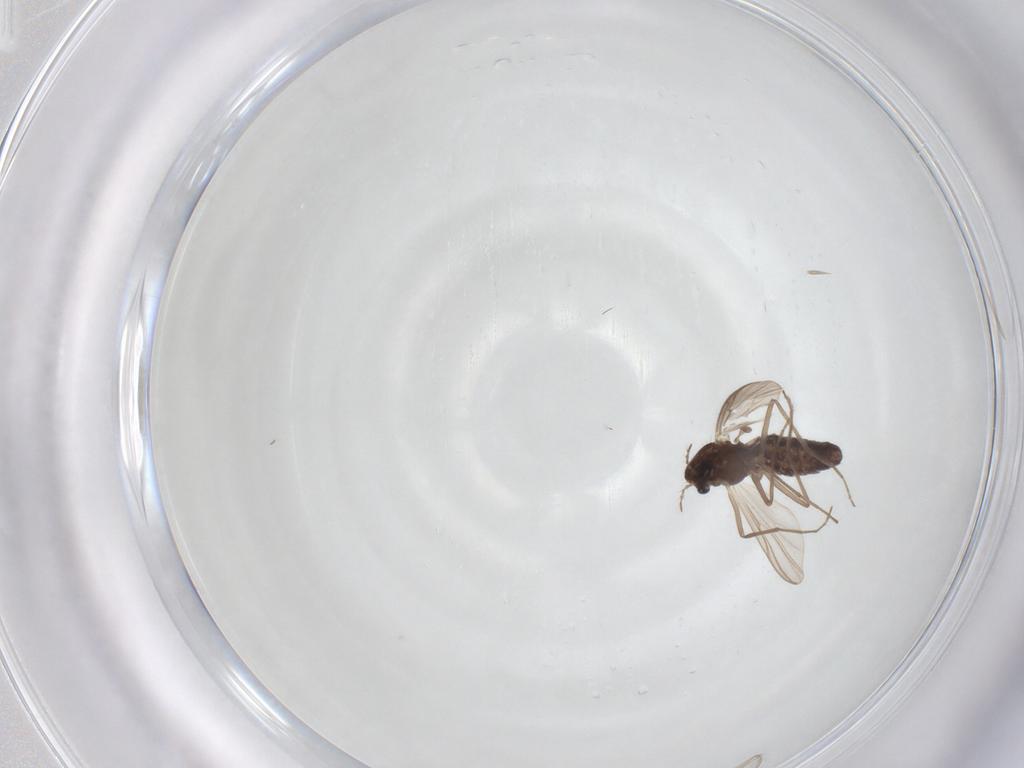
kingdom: Animalia
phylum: Arthropoda
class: Insecta
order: Diptera
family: Chironomidae
